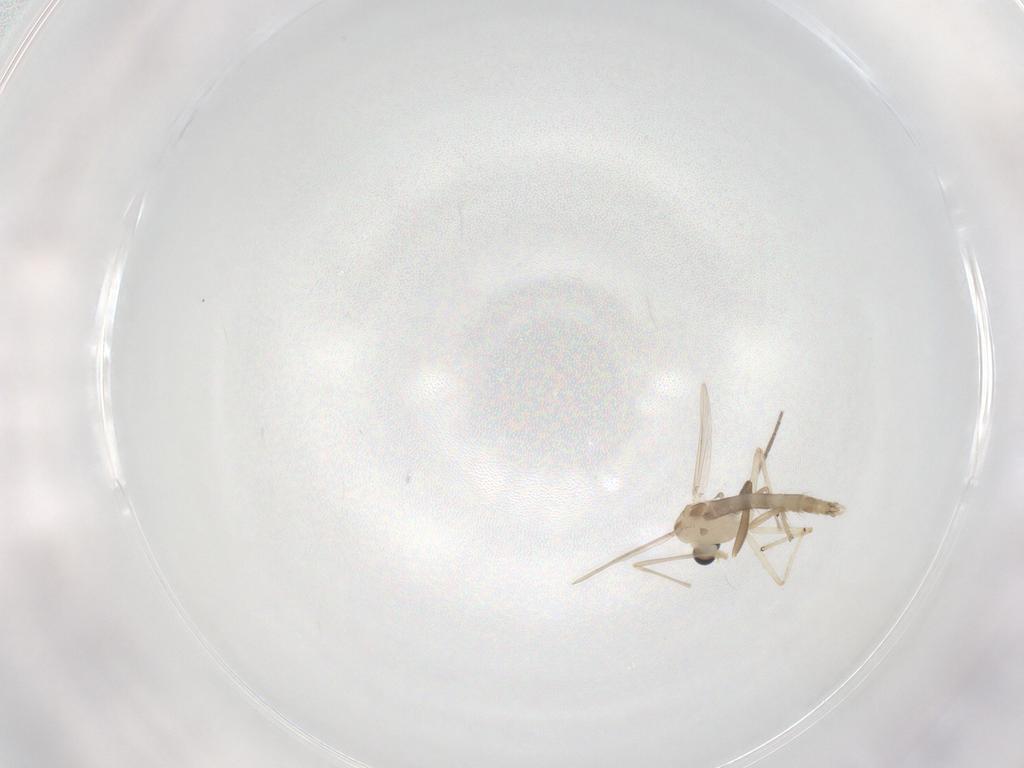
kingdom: Animalia
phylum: Arthropoda
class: Insecta
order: Diptera
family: Chironomidae
